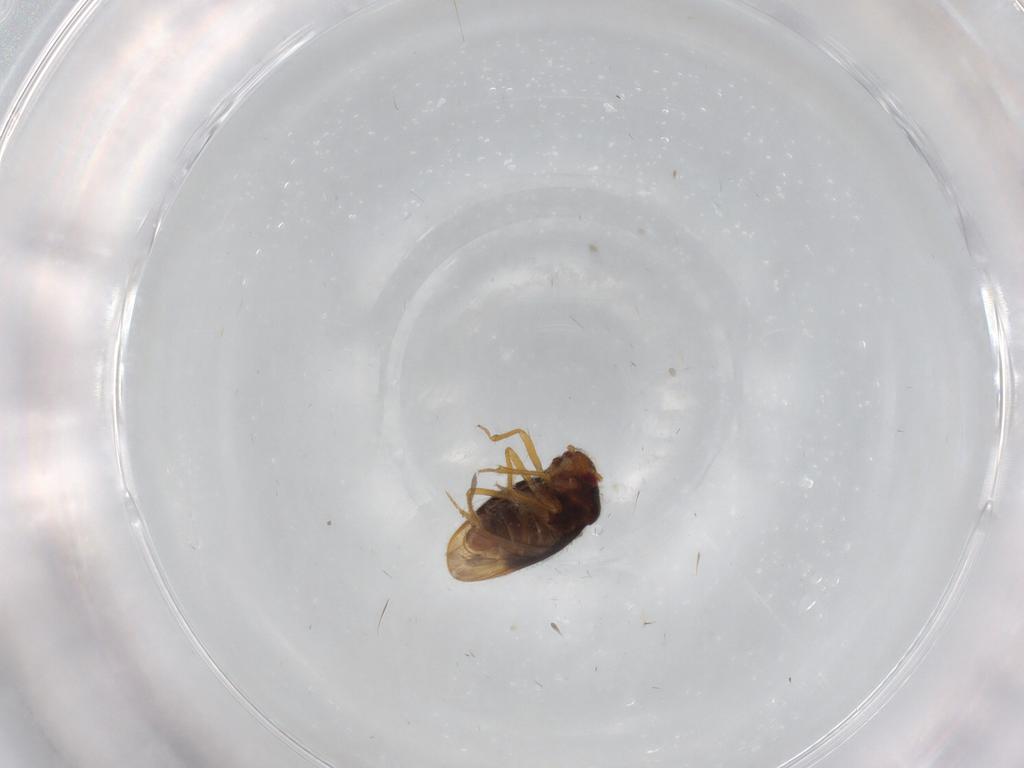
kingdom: Animalia
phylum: Arthropoda
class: Insecta
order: Hemiptera
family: Schizopteridae
